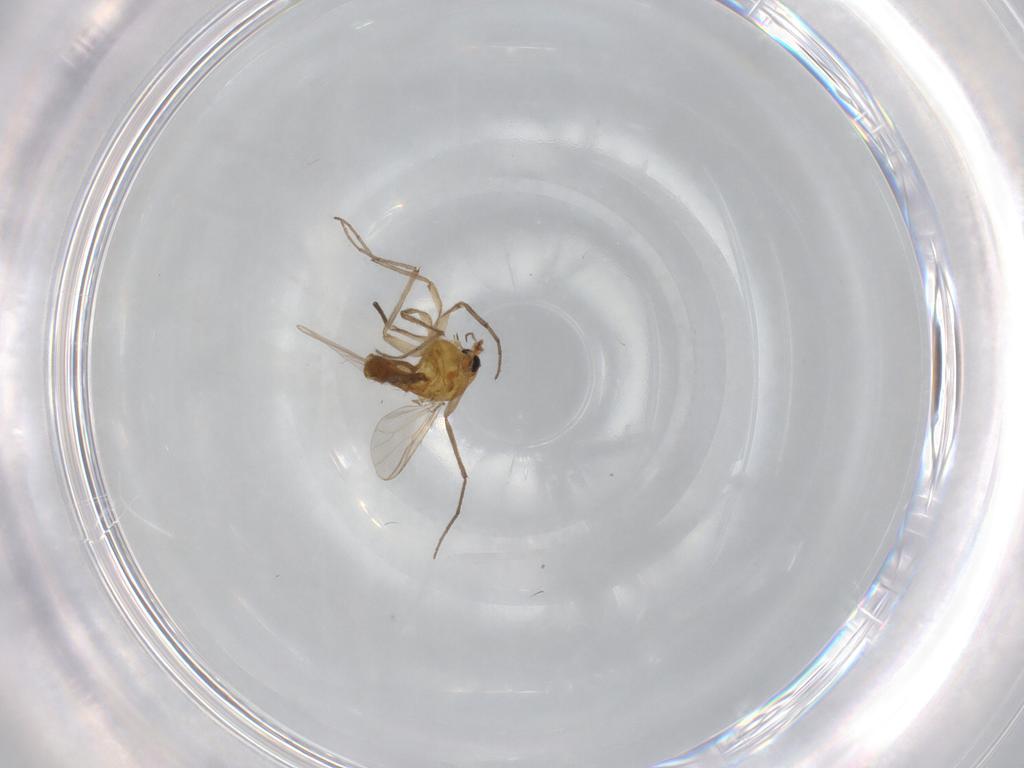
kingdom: Animalia
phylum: Arthropoda
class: Insecta
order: Diptera
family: Chironomidae
